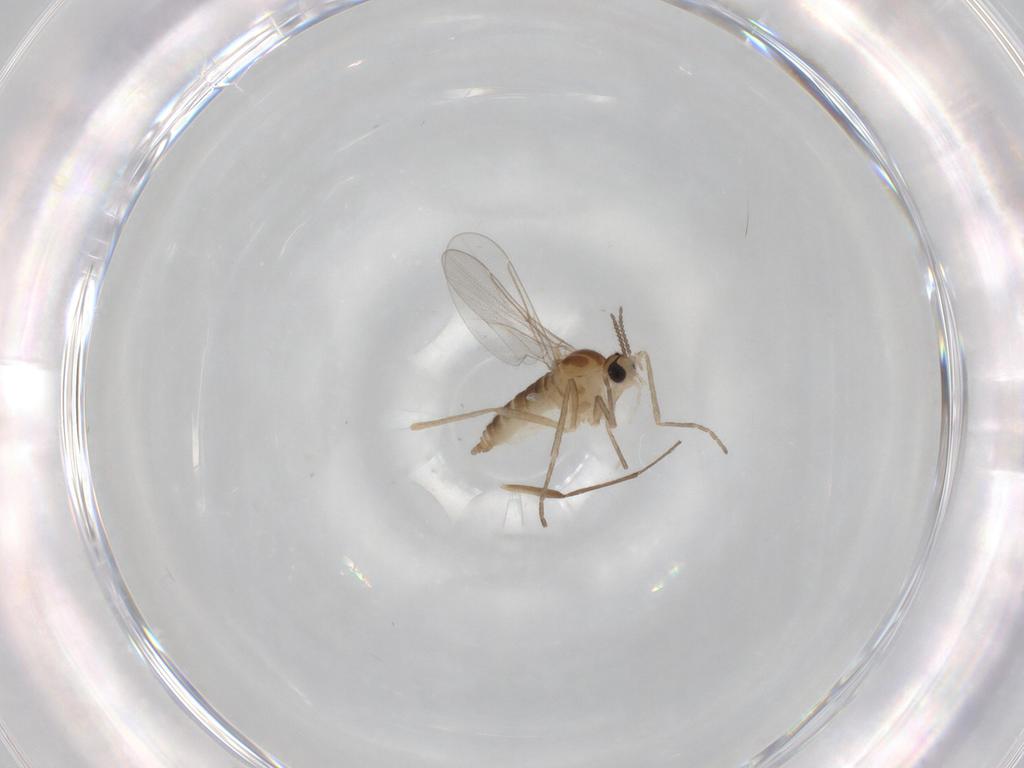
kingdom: Animalia
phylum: Arthropoda
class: Insecta
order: Diptera
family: Cecidomyiidae
